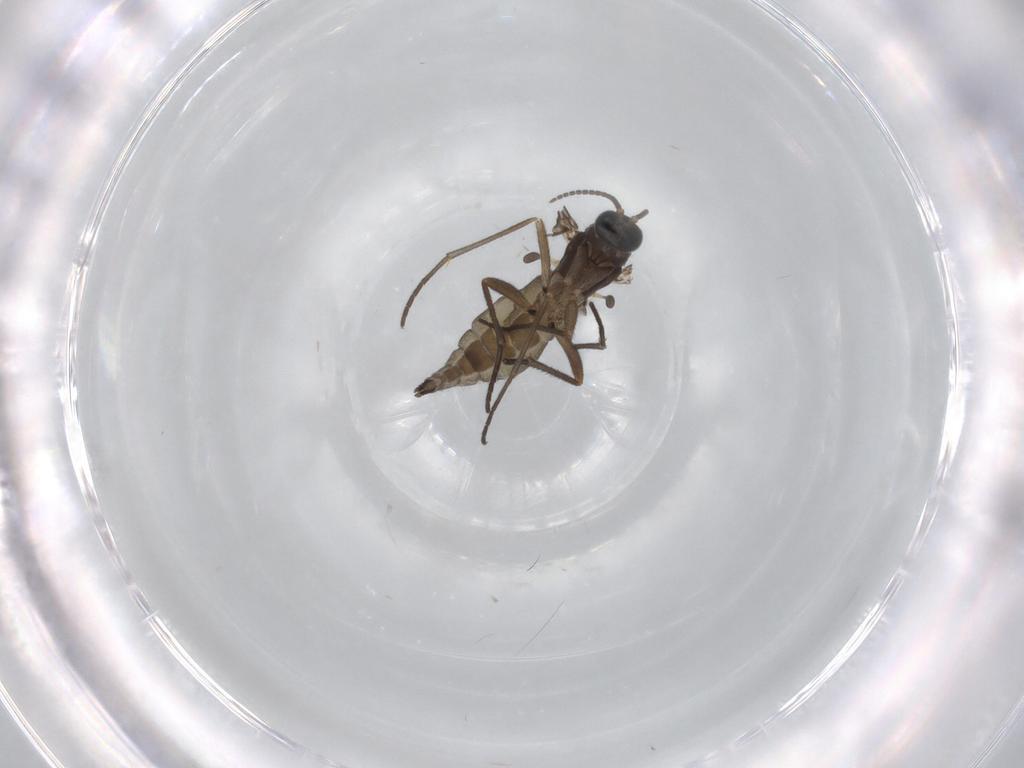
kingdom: Animalia
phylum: Arthropoda
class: Insecta
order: Diptera
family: Sciaridae
